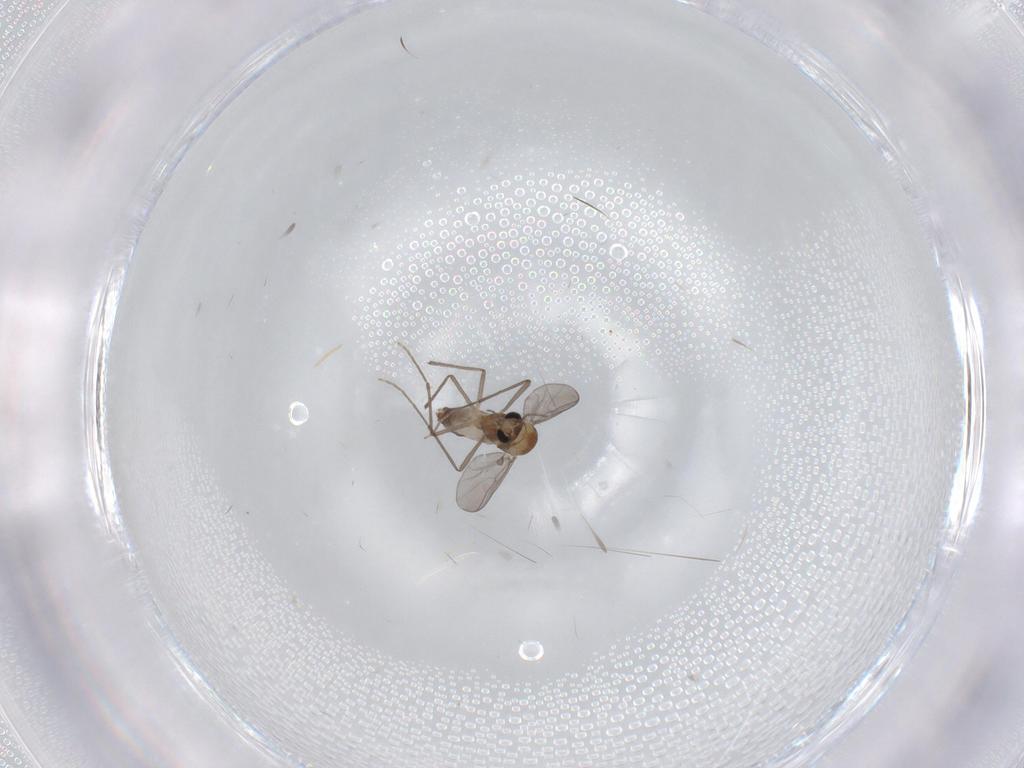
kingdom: Animalia
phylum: Arthropoda
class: Insecta
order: Diptera
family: Chironomidae
